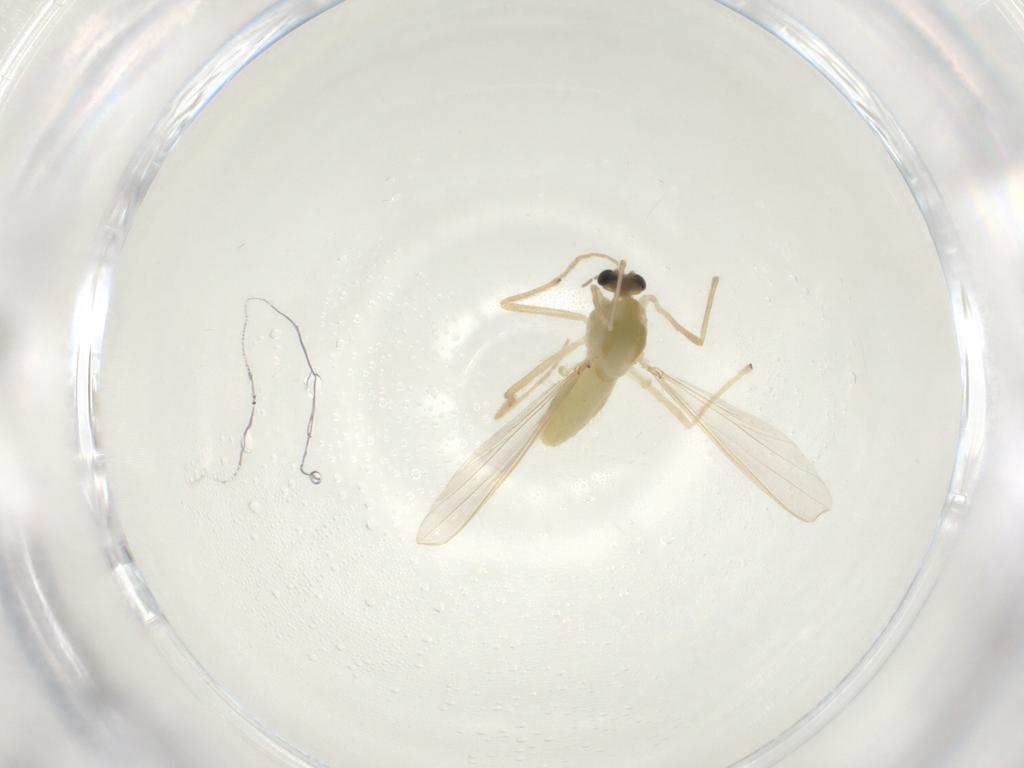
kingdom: Animalia
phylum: Arthropoda
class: Insecta
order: Diptera
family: Chironomidae
